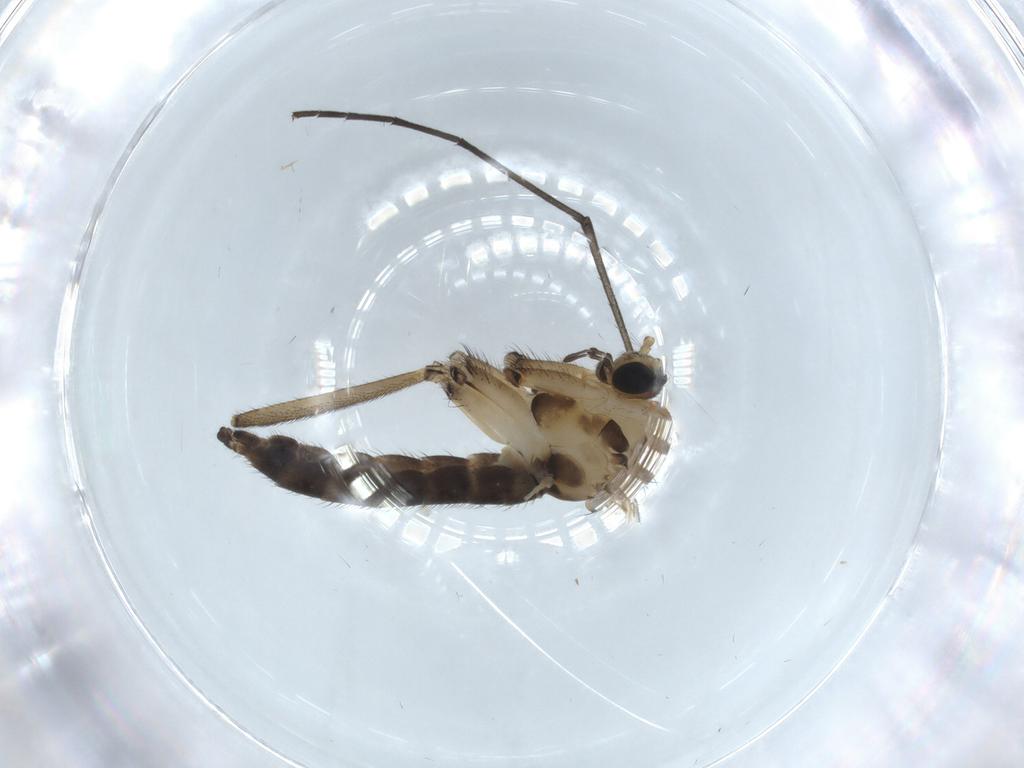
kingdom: Animalia
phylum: Arthropoda
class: Insecta
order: Diptera
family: Sciaridae
